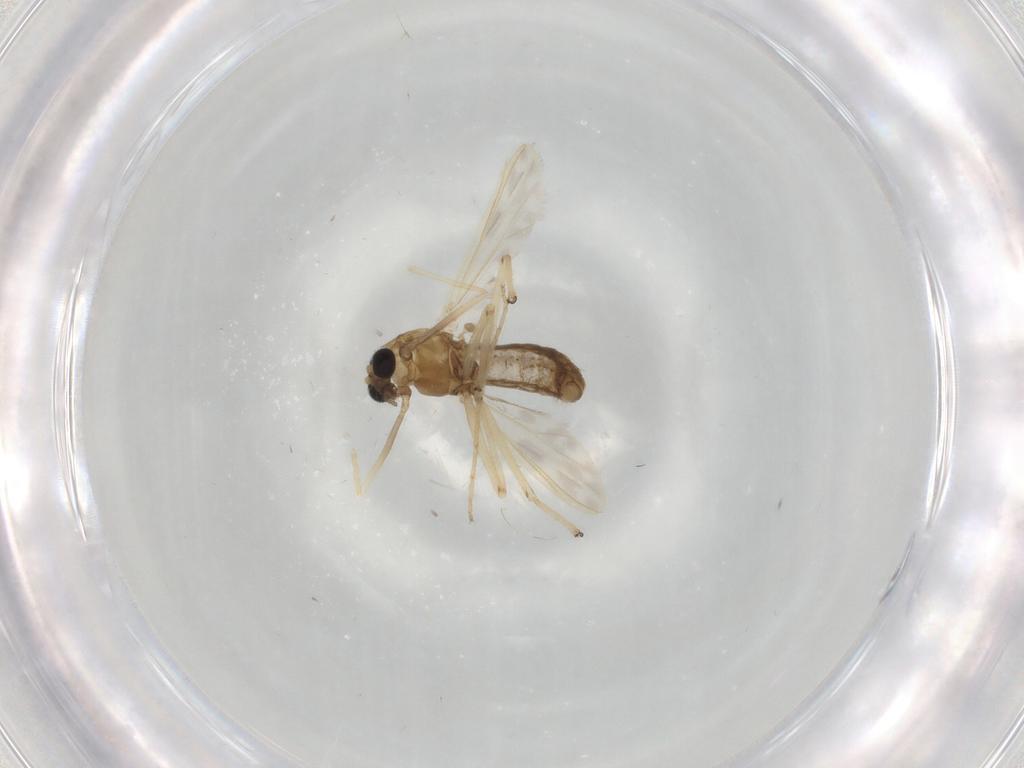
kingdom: Animalia
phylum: Arthropoda
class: Insecta
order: Diptera
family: Chironomidae
